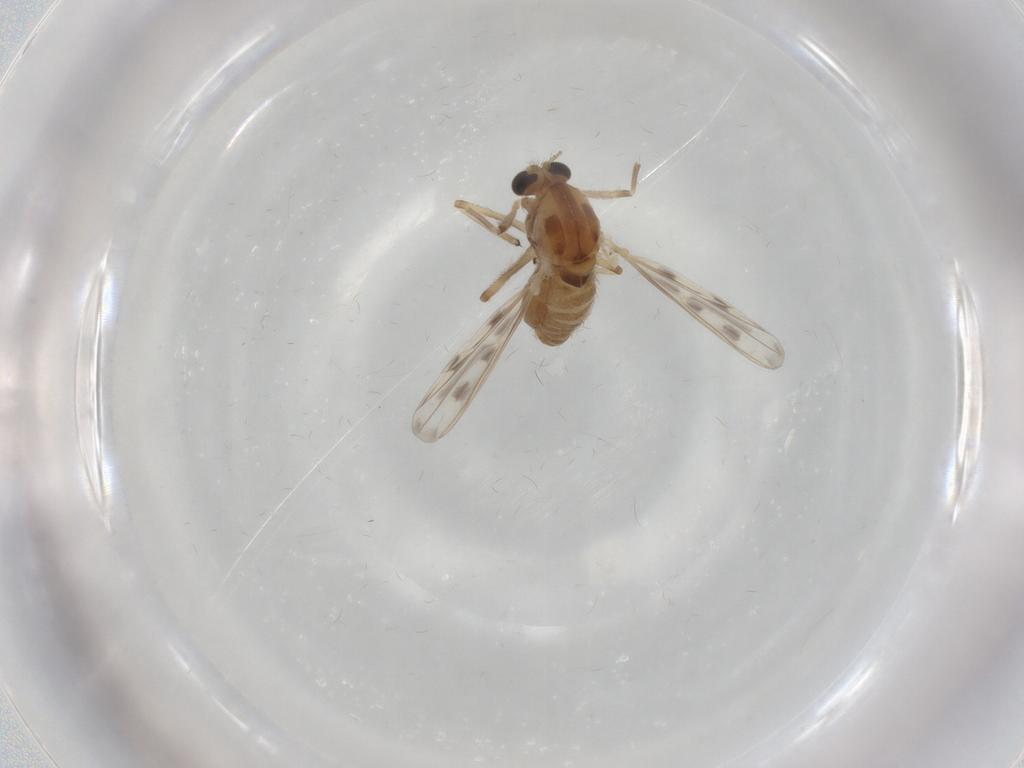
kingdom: Animalia
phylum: Arthropoda
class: Insecta
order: Diptera
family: Chironomidae
